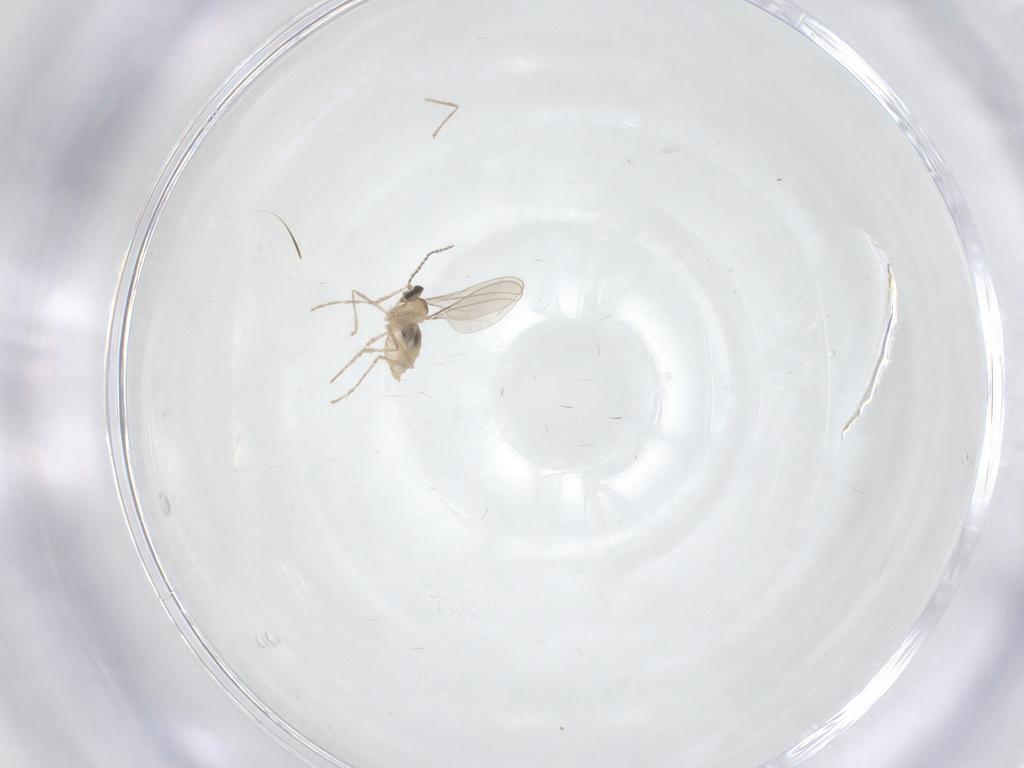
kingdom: Animalia
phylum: Arthropoda
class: Insecta
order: Diptera
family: Cecidomyiidae
